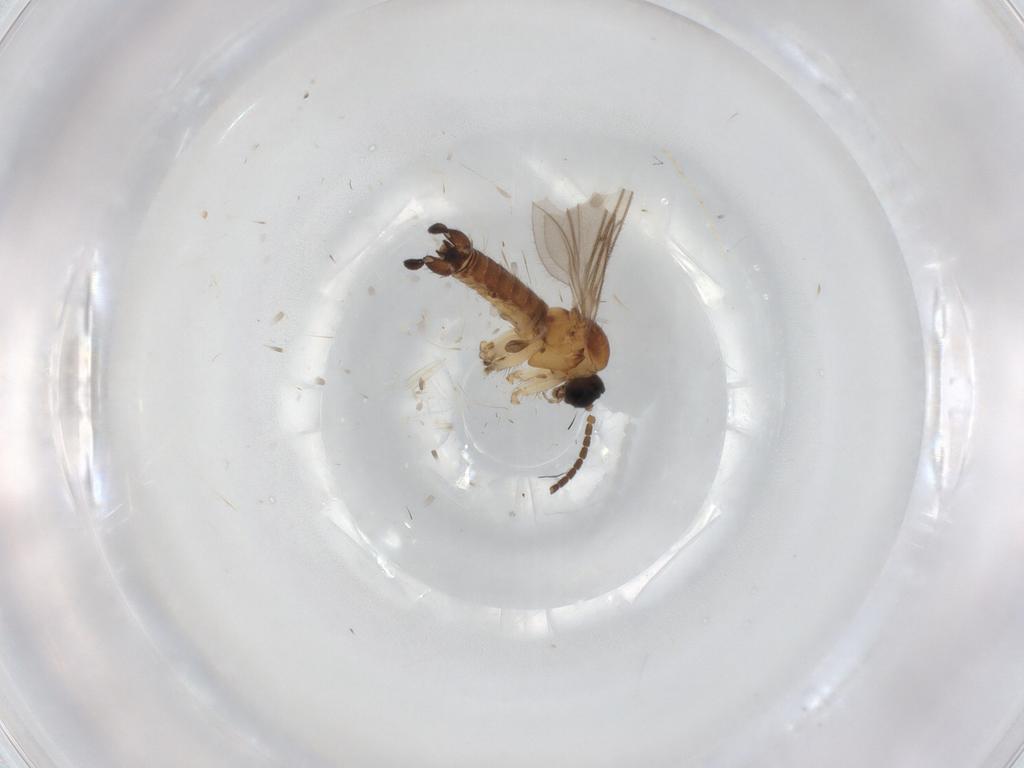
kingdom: Animalia
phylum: Arthropoda
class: Insecta
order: Diptera
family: Sciaridae
